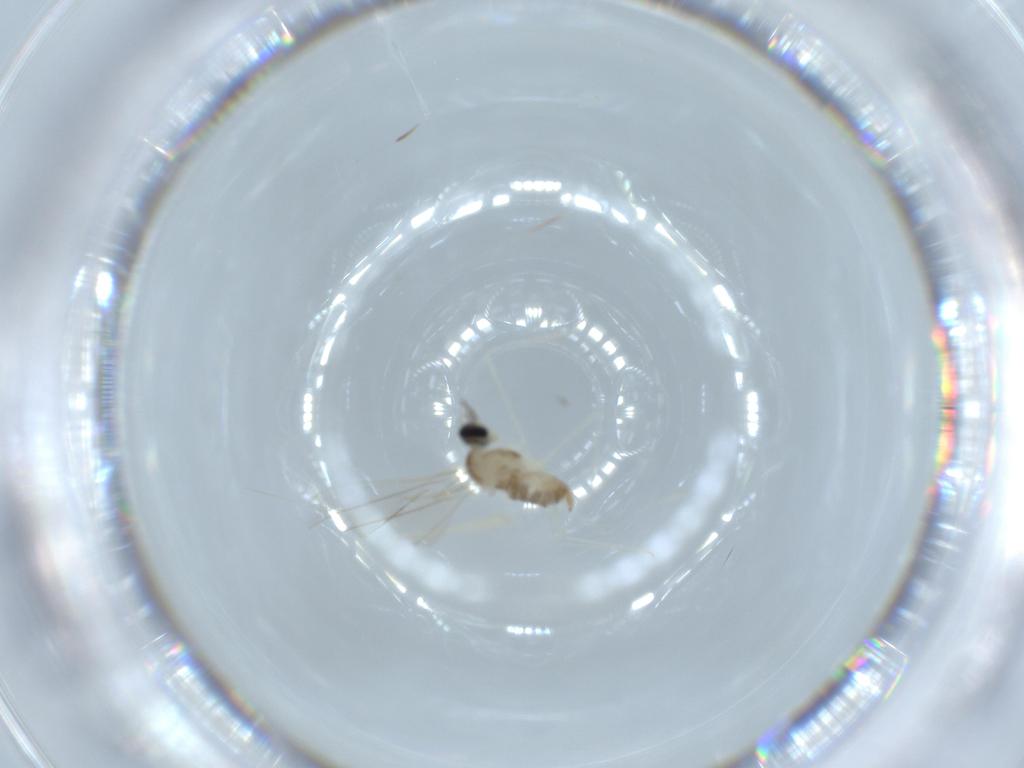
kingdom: Animalia
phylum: Arthropoda
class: Insecta
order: Diptera
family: Cecidomyiidae
